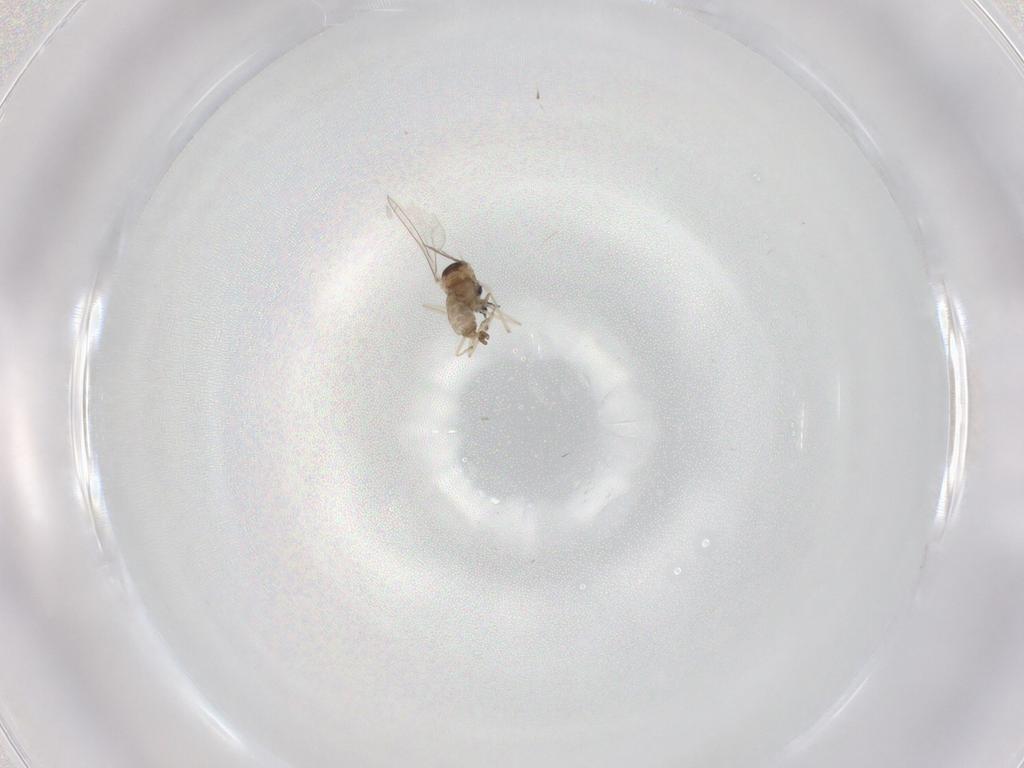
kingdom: Animalia
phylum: Arthropoda
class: Insecta
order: Diptera
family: Cecidomyiidae
